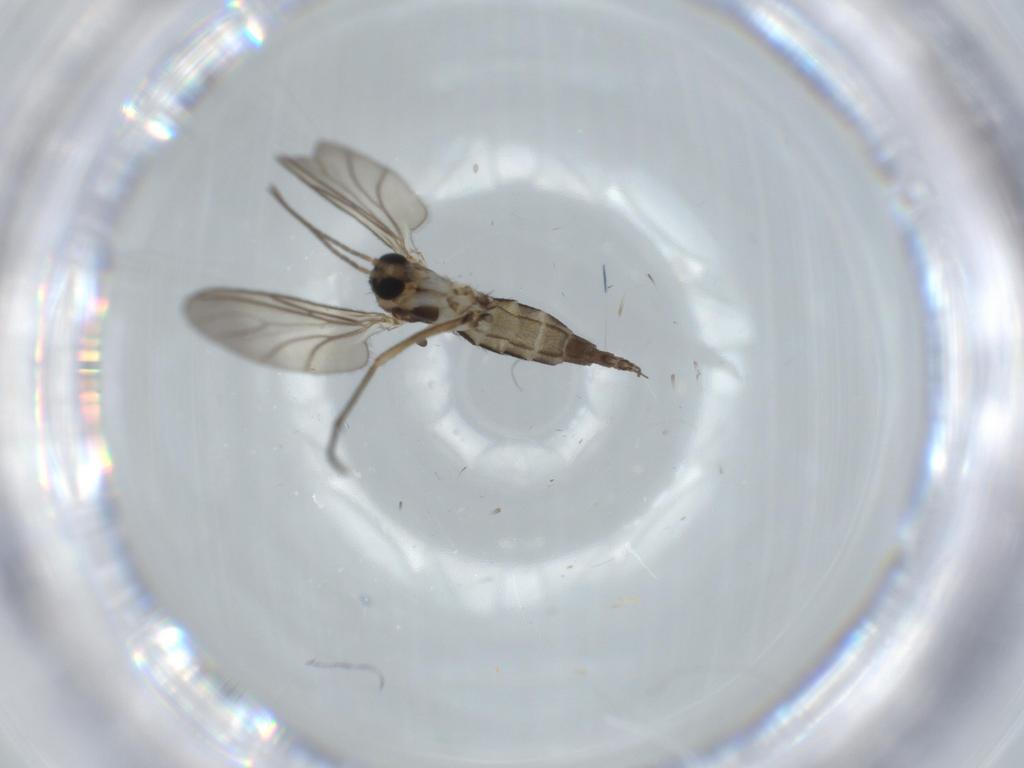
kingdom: Animalia
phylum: Arthropoda
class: Insecta
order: Diptera
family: Sciaridae
